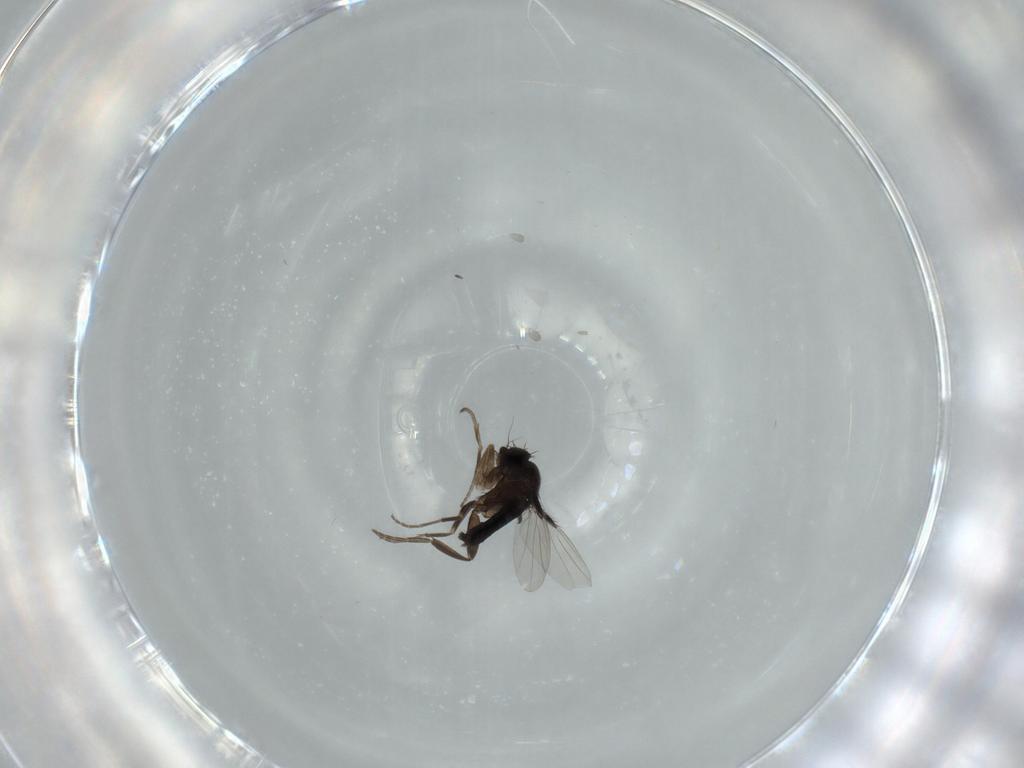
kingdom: Animalia
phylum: Arthropoda
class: Insecta
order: Diptera
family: Phoridae
